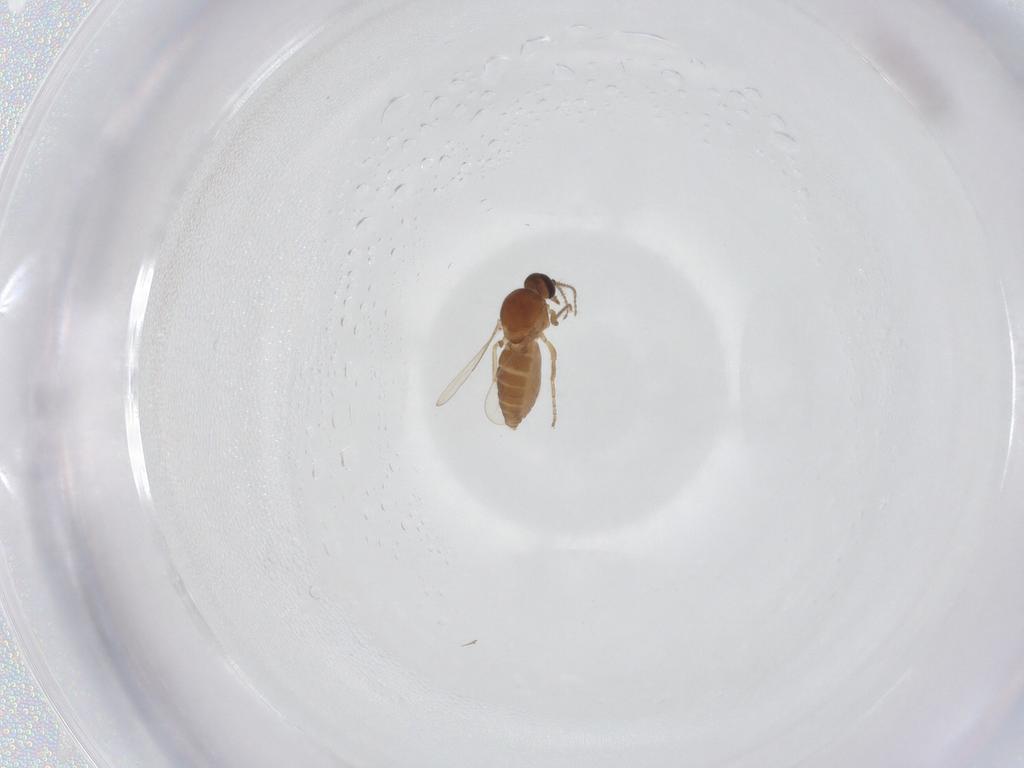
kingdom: Animalia
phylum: Arthropoda
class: Insecta
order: Diptera
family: Ceratopogonidae
